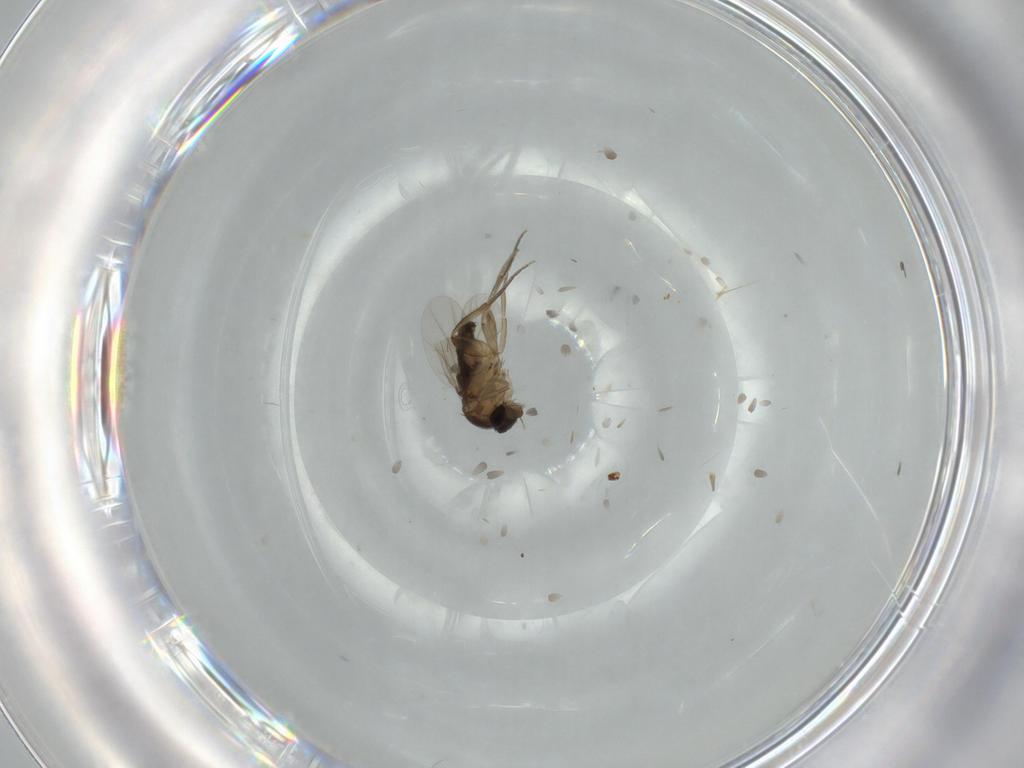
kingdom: Animalia
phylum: Arthropoda
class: Insecta
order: Diptera
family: Phoridae
